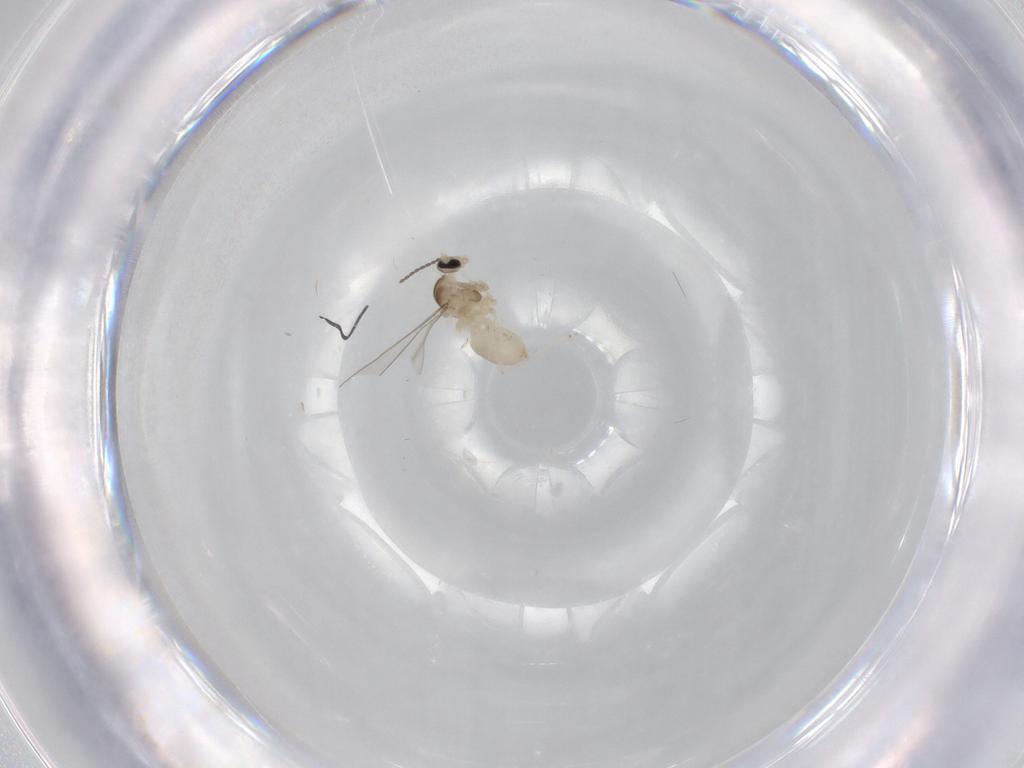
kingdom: Animalia
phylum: Arthropoda
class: Insecta
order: Diptera
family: Cecidomyiidae
